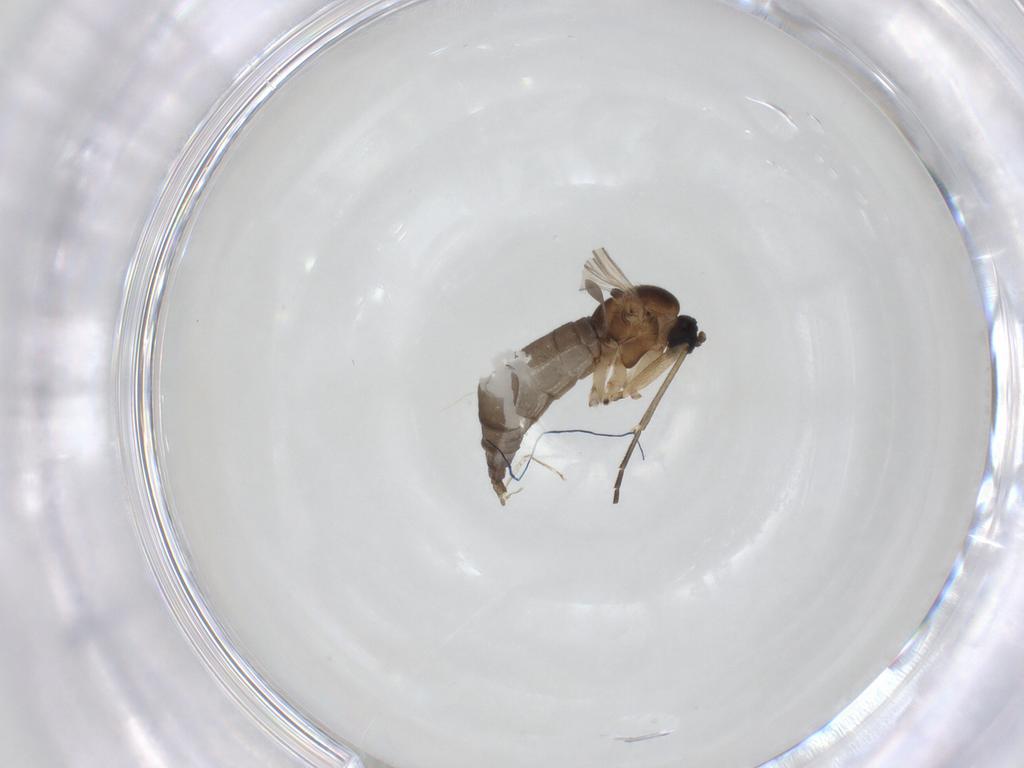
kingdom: Animalia
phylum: Arthropoda
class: Insecta
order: Diptera
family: Sciaridae
